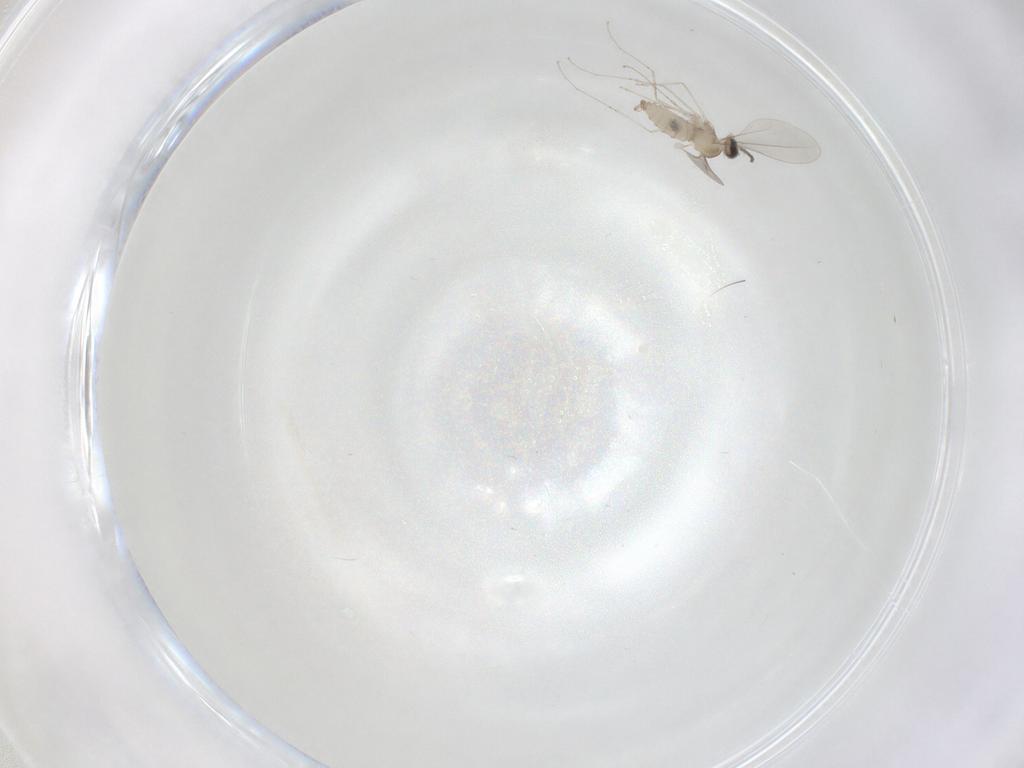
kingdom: Animalia
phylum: Arthropoda
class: Insecta
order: Diptera
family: Cecidomyiidae
